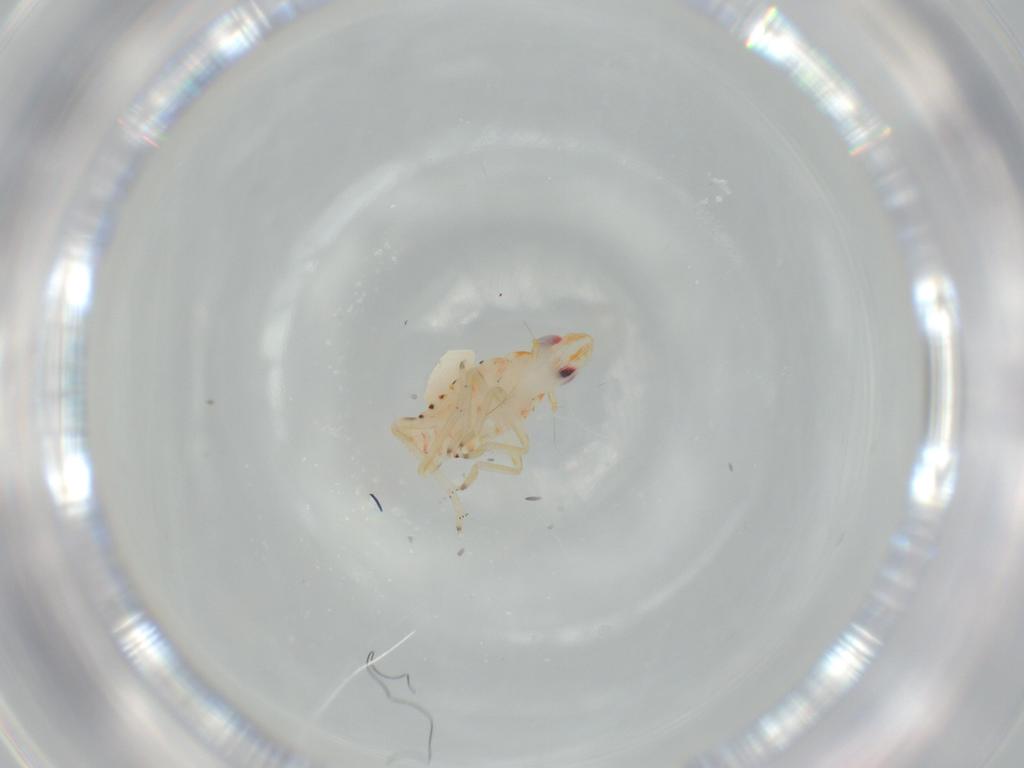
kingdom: Animalia
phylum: Arthropoda
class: Insecta
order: Hemiptera
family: Tropiduchidae
